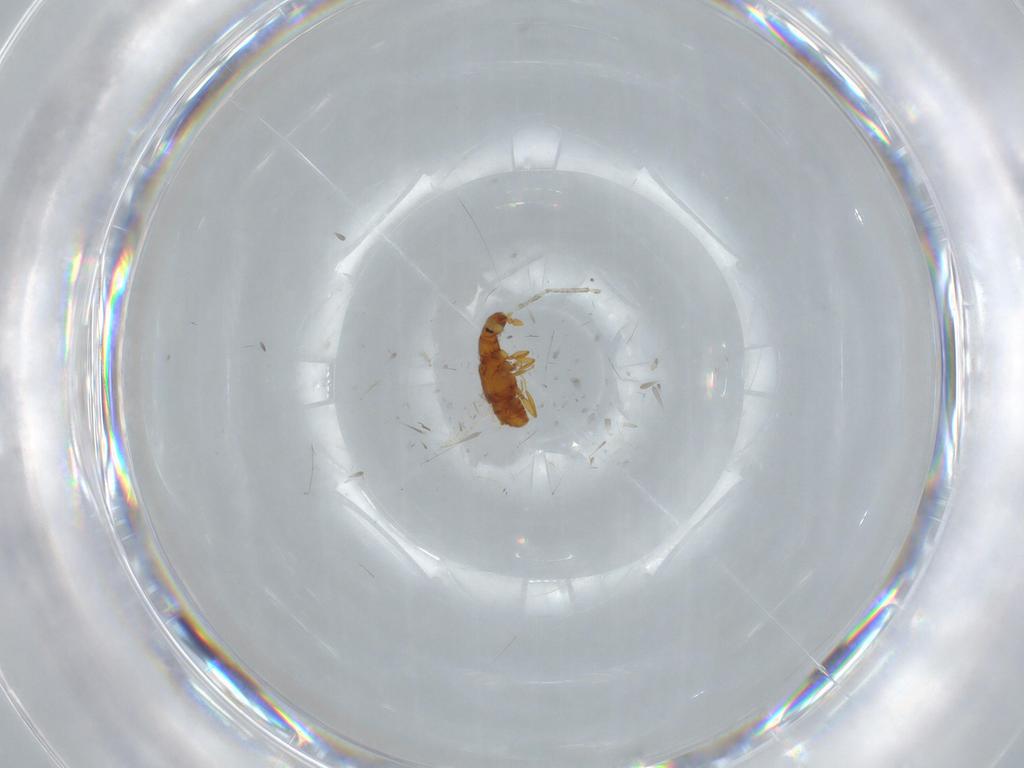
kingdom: Animalia
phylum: Arthropoda
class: Insecta
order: Coleoptera
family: Staphylinidae
